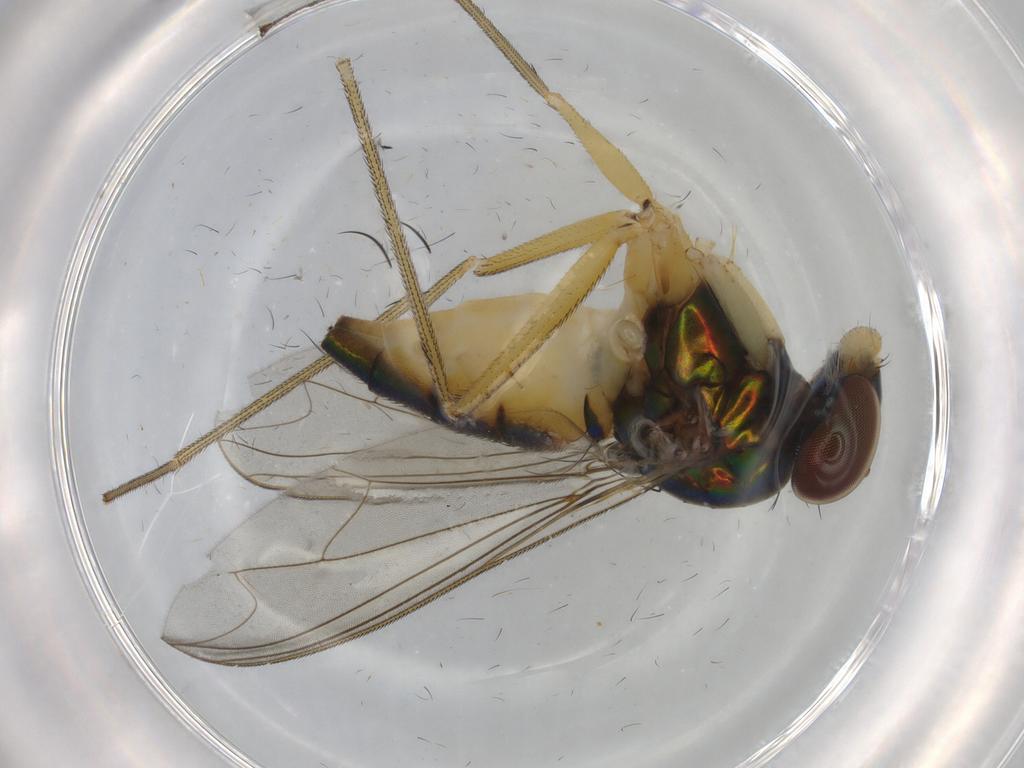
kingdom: Animalia
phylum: Arthropoda
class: Insecta
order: Diptera
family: Dolichopodidae
